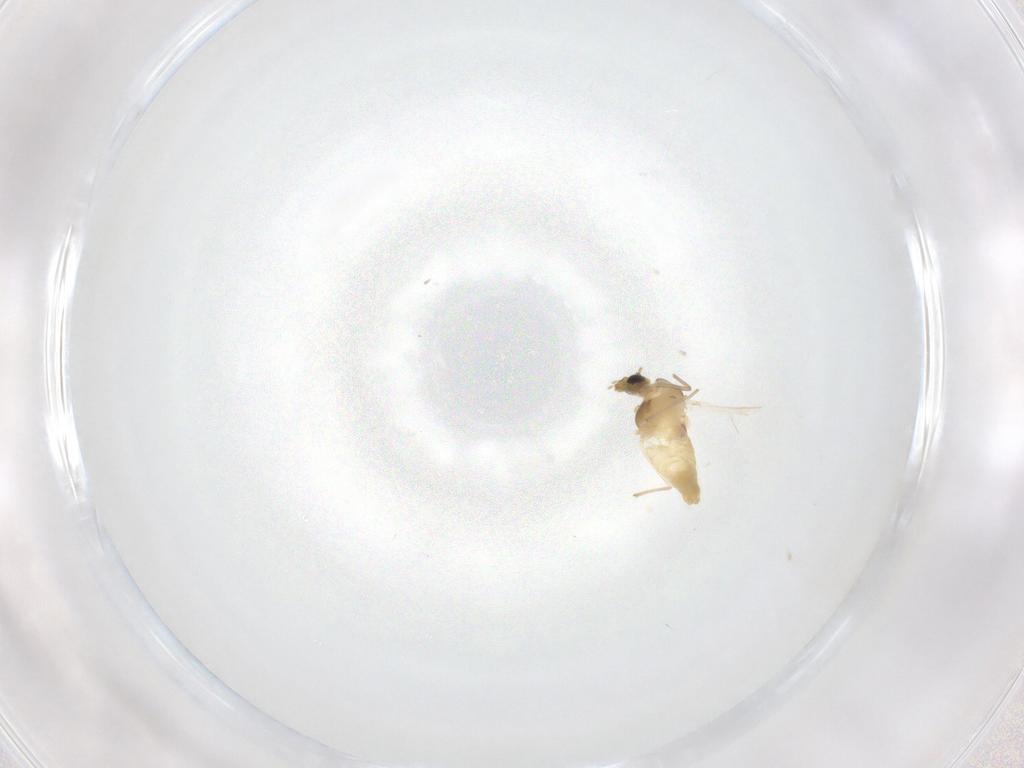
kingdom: Animalia
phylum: Arthropoda
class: Insecta
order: Diptera
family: Chironomidae
